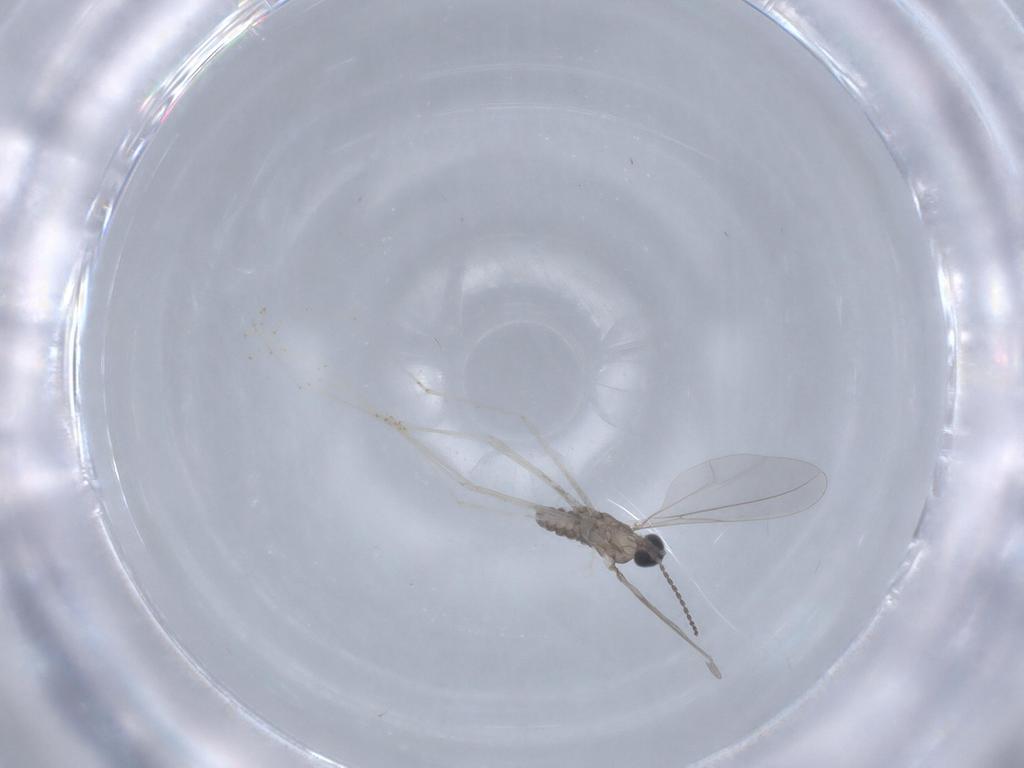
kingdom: Animalia
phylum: Arthropoda
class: Insecta
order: Diptera
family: Cecidomyiidae
